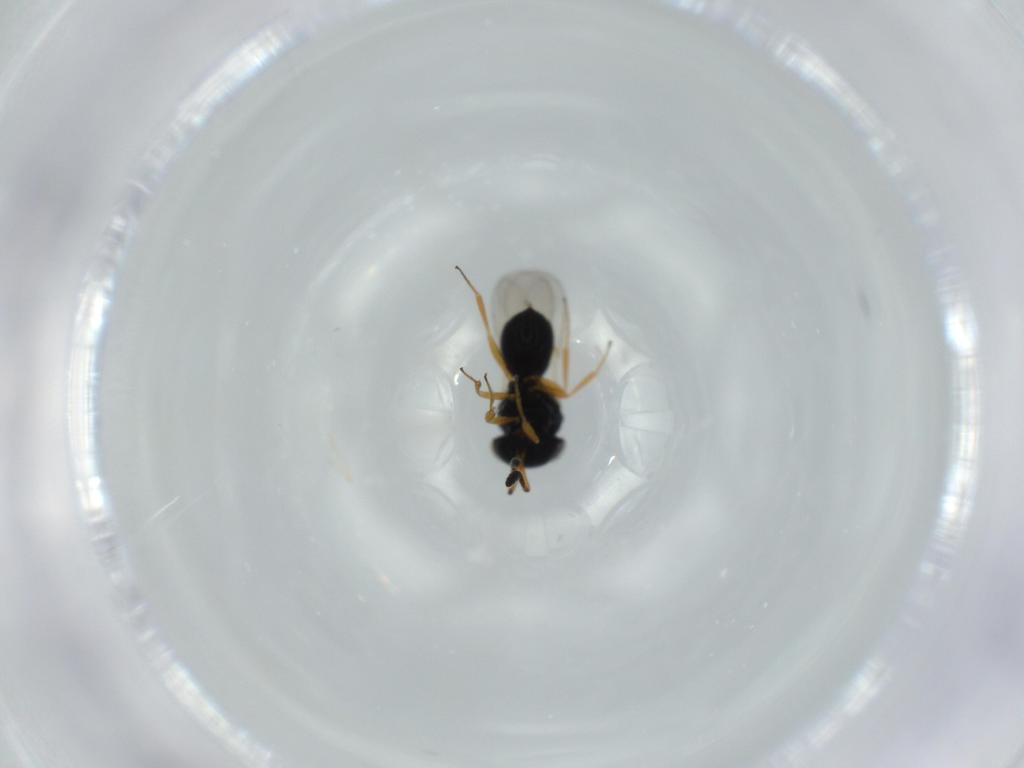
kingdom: Animalia
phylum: Arthropoda
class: Insecta
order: Hymenoptera
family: Scelionidae
